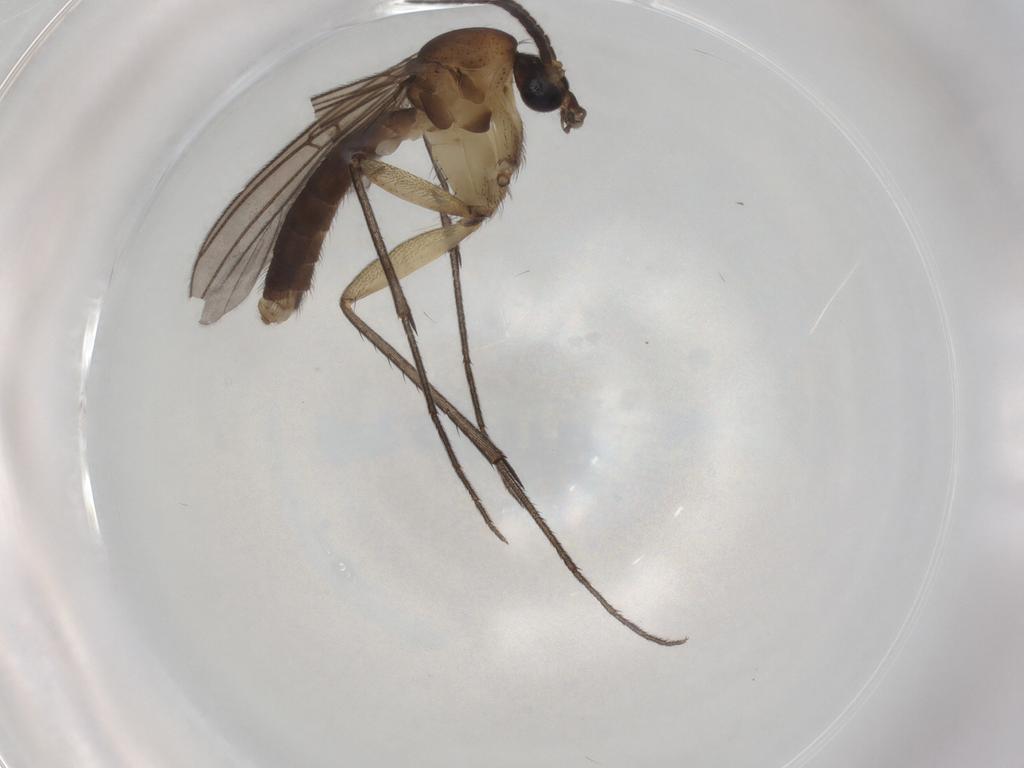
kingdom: Animalia
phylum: Arthropoda
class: Insecta
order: Diptera
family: Mycetophilidae
